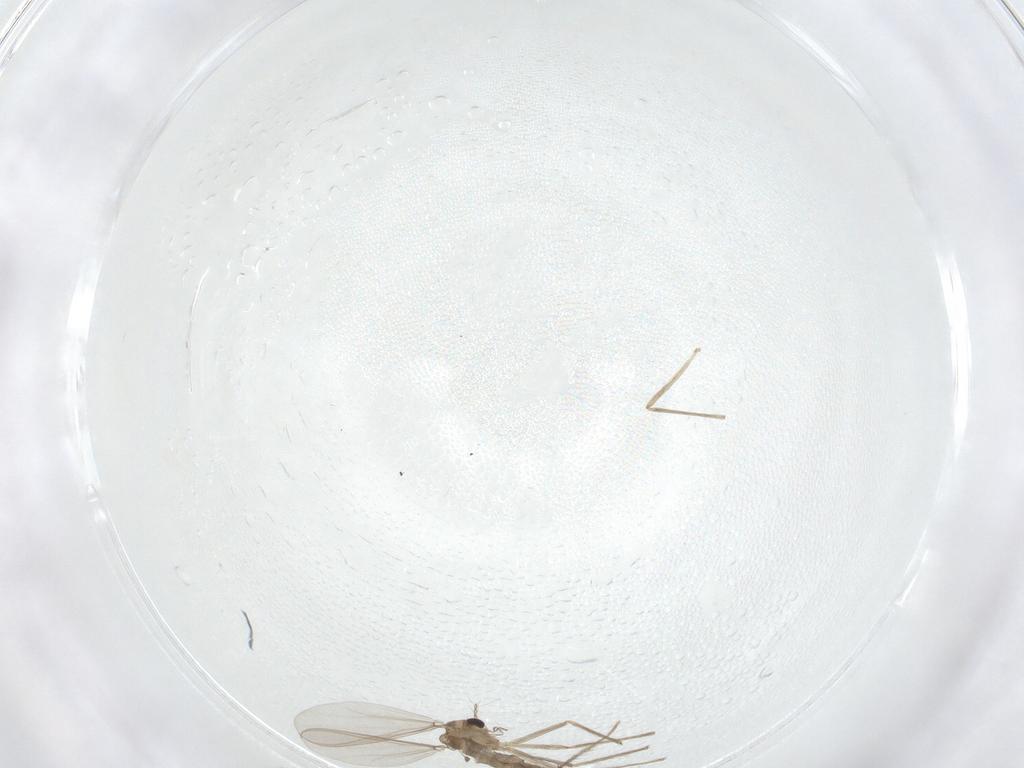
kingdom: Animalia
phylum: Arthropoda
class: Insecta
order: Diptera
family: Chironomidae
